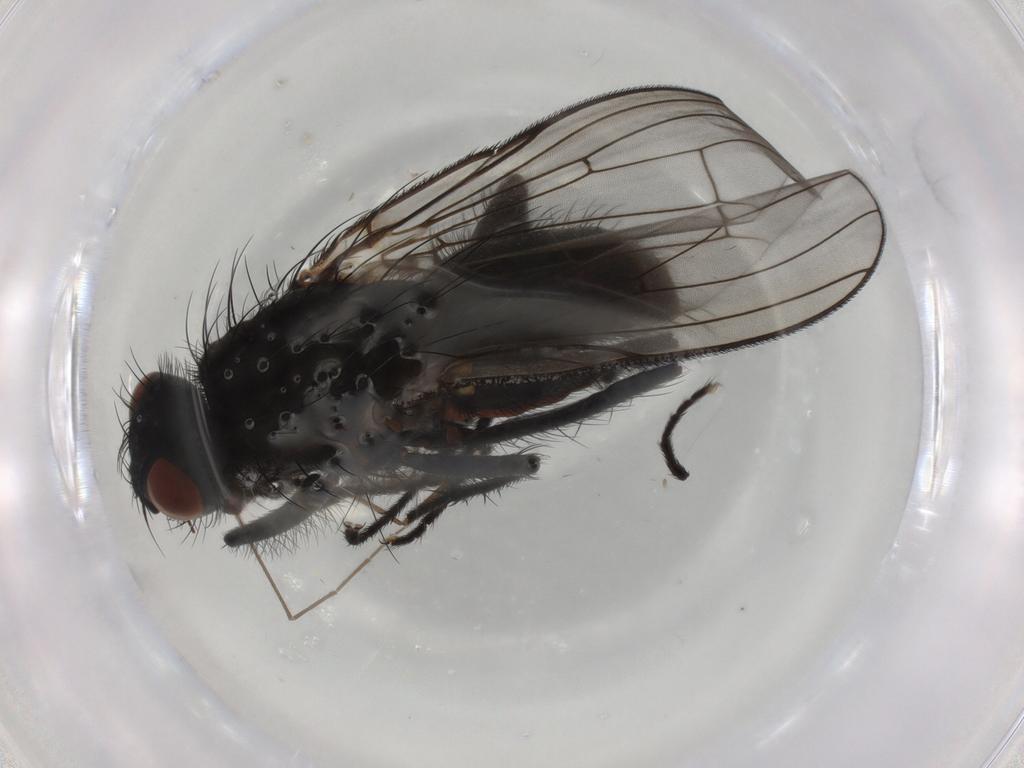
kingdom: Animalia
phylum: Arthropoda
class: Insecta
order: Diptera
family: Anthomyiidae
